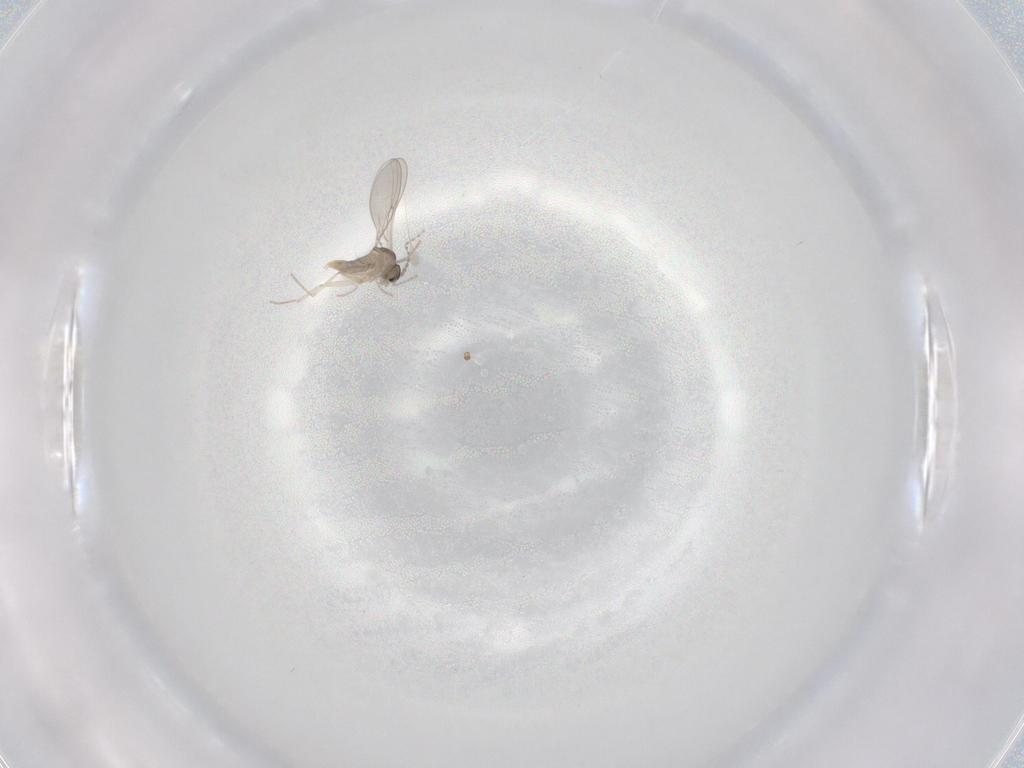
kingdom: Animalia
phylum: Arthropoda
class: Insecta
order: Diptera
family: Cecidomyiidae
